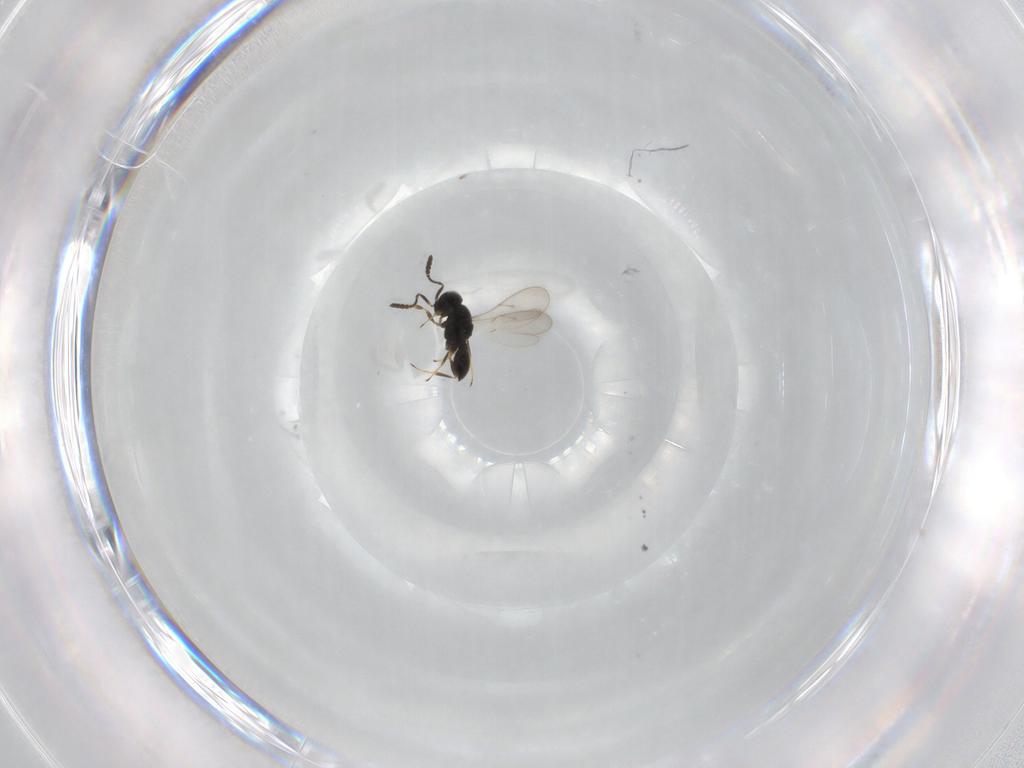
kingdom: Animalia
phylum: Arthropoda
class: Insecta
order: Hymenoptera
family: Scelionidae
